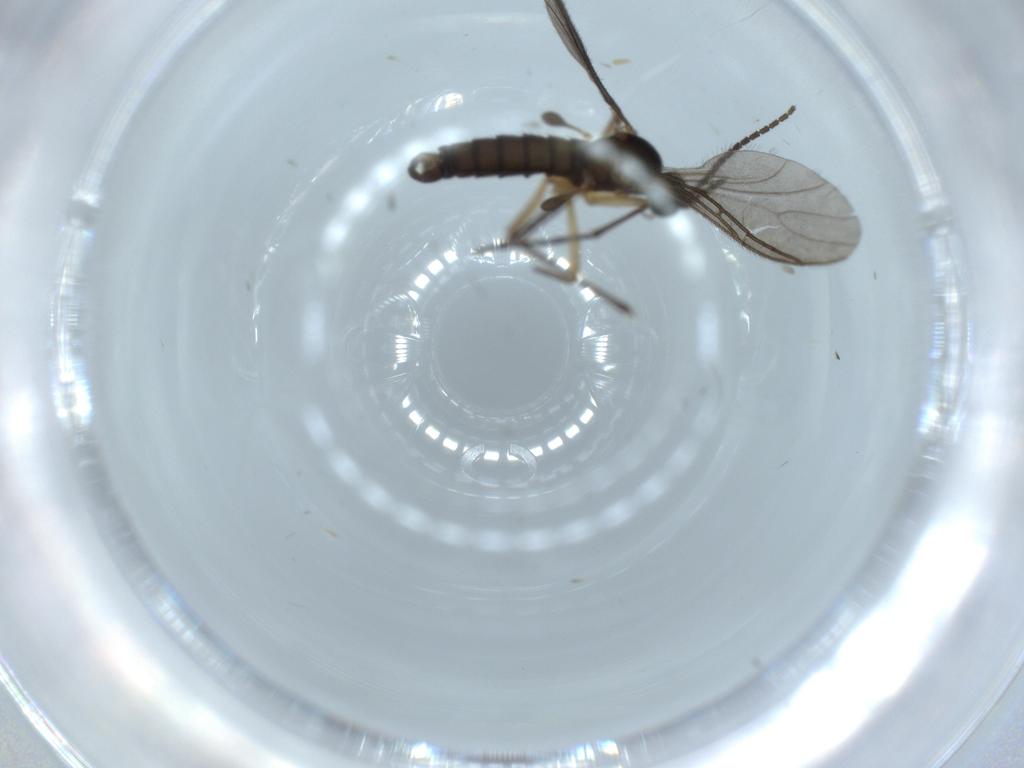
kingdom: Animalia
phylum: Arthropoda
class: Insecta
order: Diptera
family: Sciaridae
